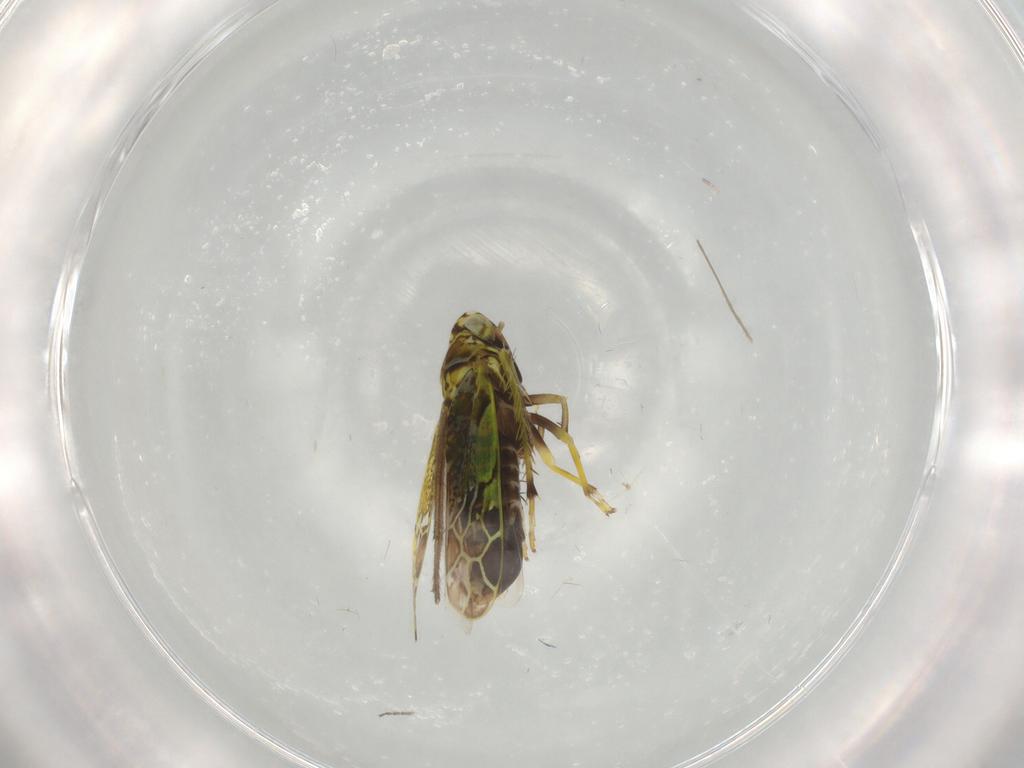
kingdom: Animalia
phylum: Arthropoda
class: Insecta
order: Hemiptera
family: Cicadellidae
